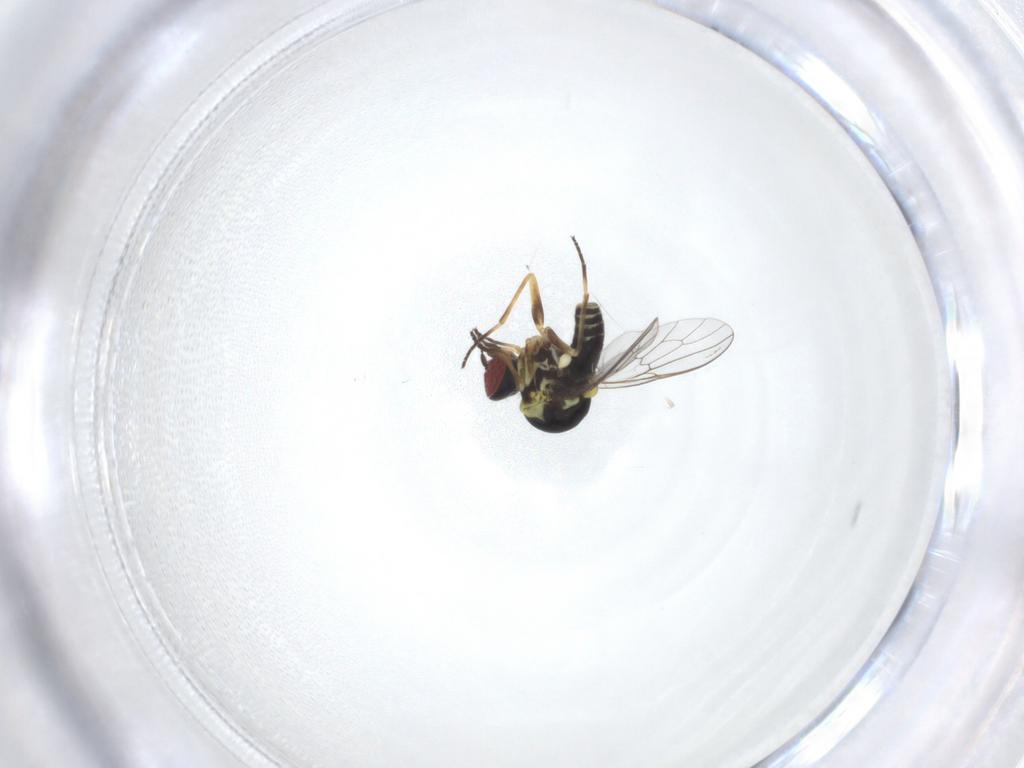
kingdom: Animalia
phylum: Arthropoda
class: Insecta
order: Diptera
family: Bombyliidae
